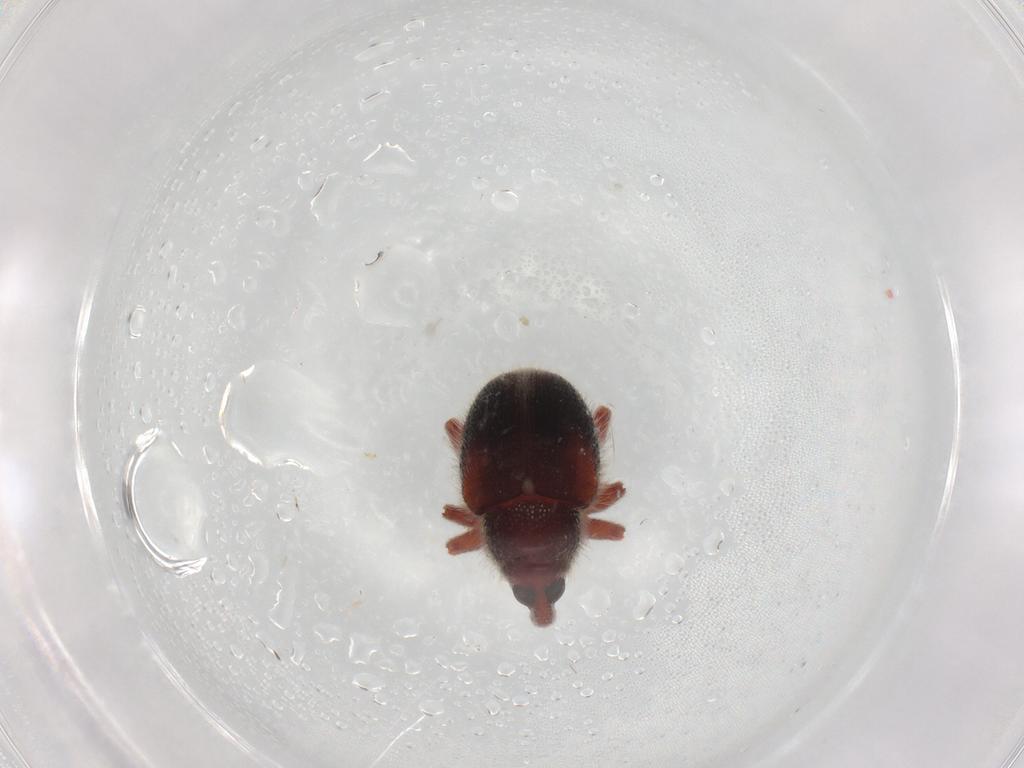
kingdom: Animalia
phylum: Arthropoda
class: Insecta
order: Coleoptera
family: Curculionidae
